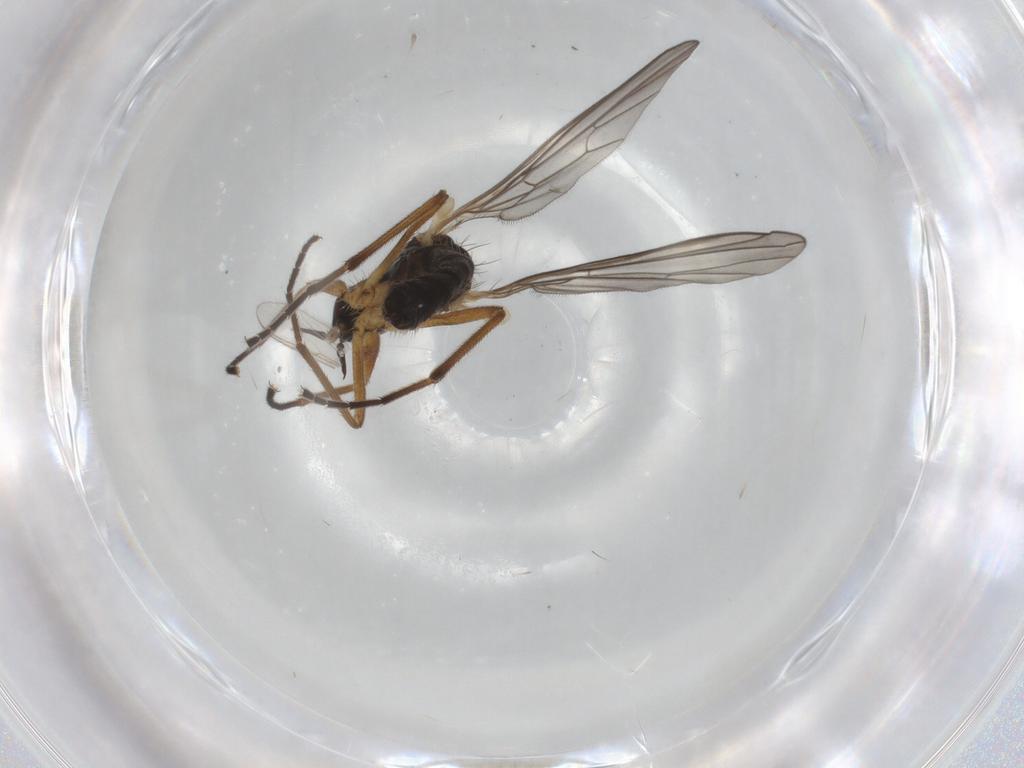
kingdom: Animalia
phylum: Arthropoda
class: Insecta
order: Diptera
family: Empididae
